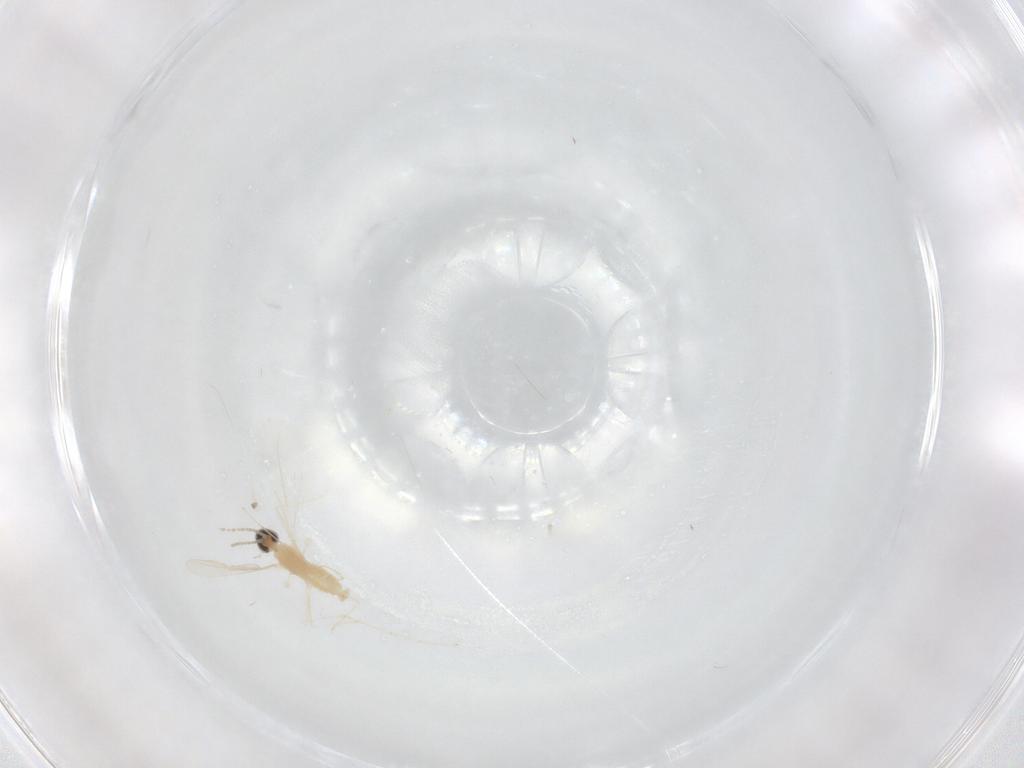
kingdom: Animalia
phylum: Arthropoda
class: Insecta
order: Diptera
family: Cecidomyiidae
